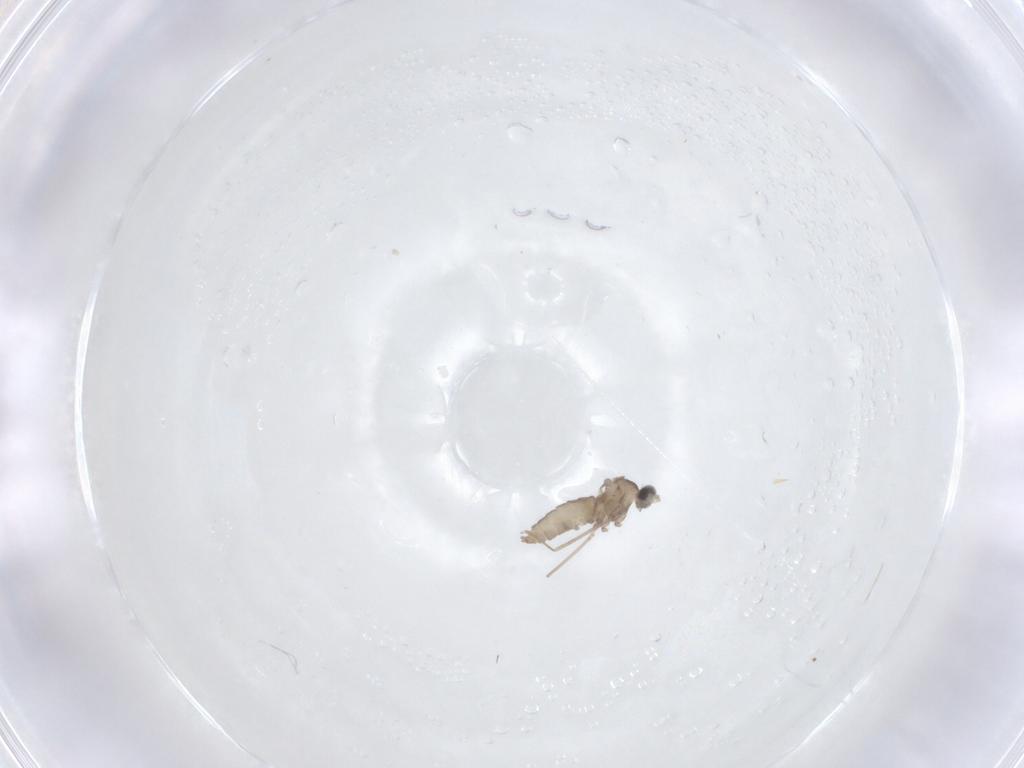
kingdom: Animalia
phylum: Arthropoda
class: Insecta
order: Diptera
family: Cecidomyiidae
